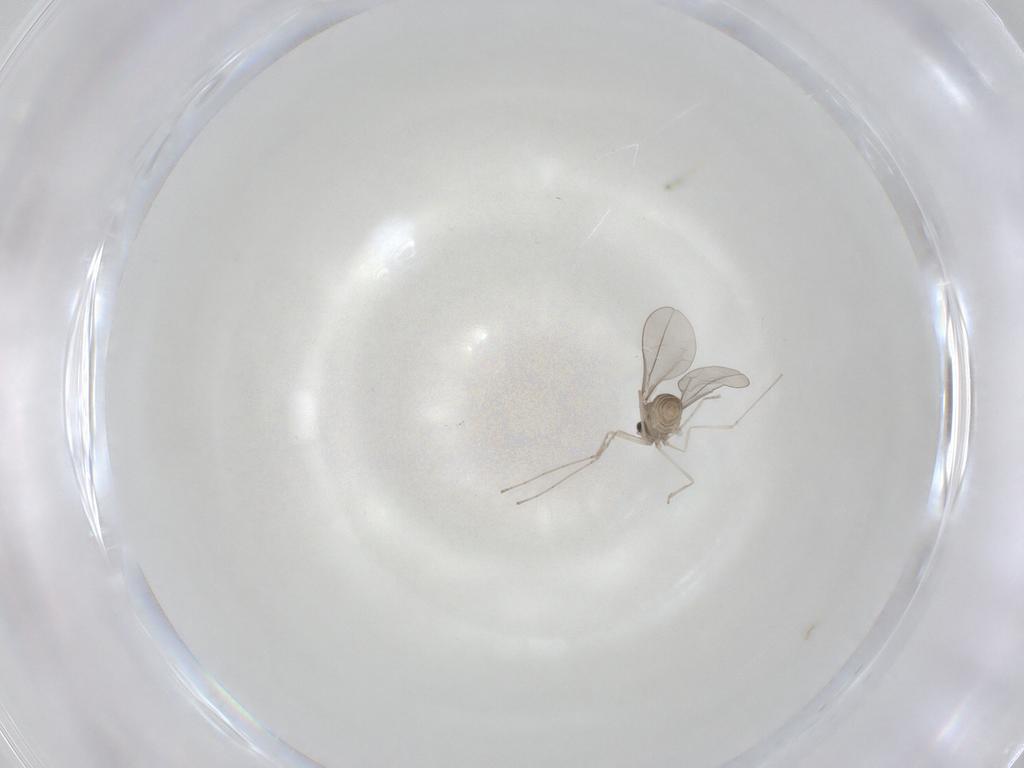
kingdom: Animalia
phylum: Arthropoda
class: Insecta
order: Diptera
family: Cecidomyiidae
